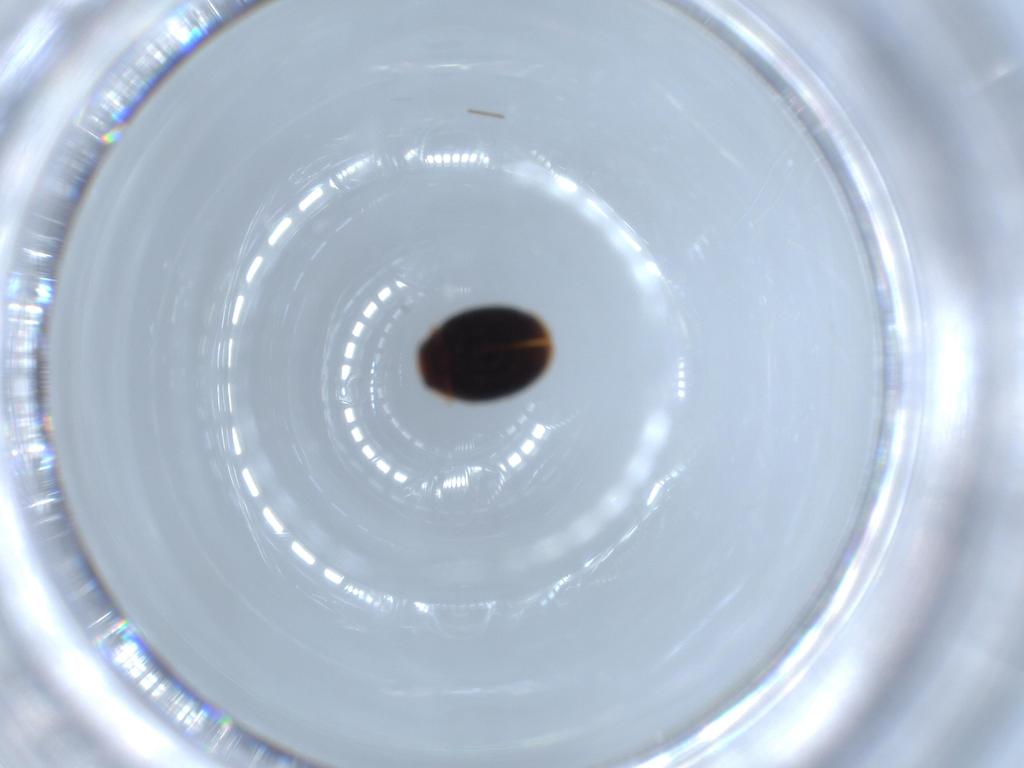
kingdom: Animalia
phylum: Arthropoda
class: Insecta
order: Coleoptera
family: Coccinellidae
